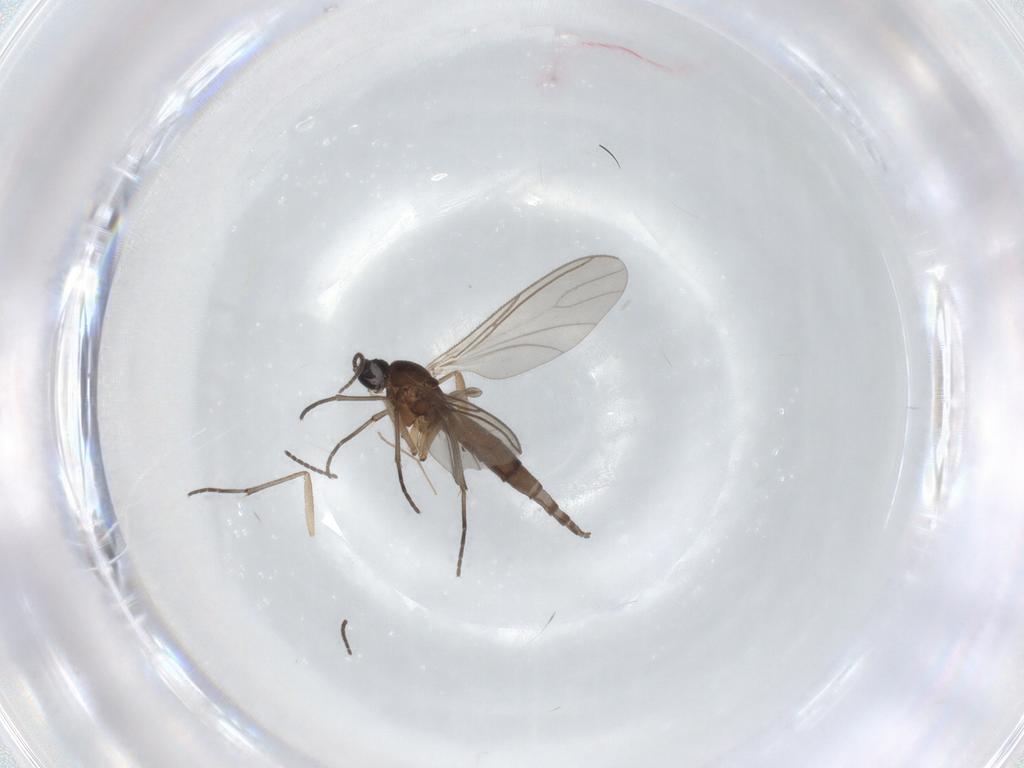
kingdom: Animalia
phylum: Arthropoda
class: Insecta
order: Diptera
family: Sciaridae
